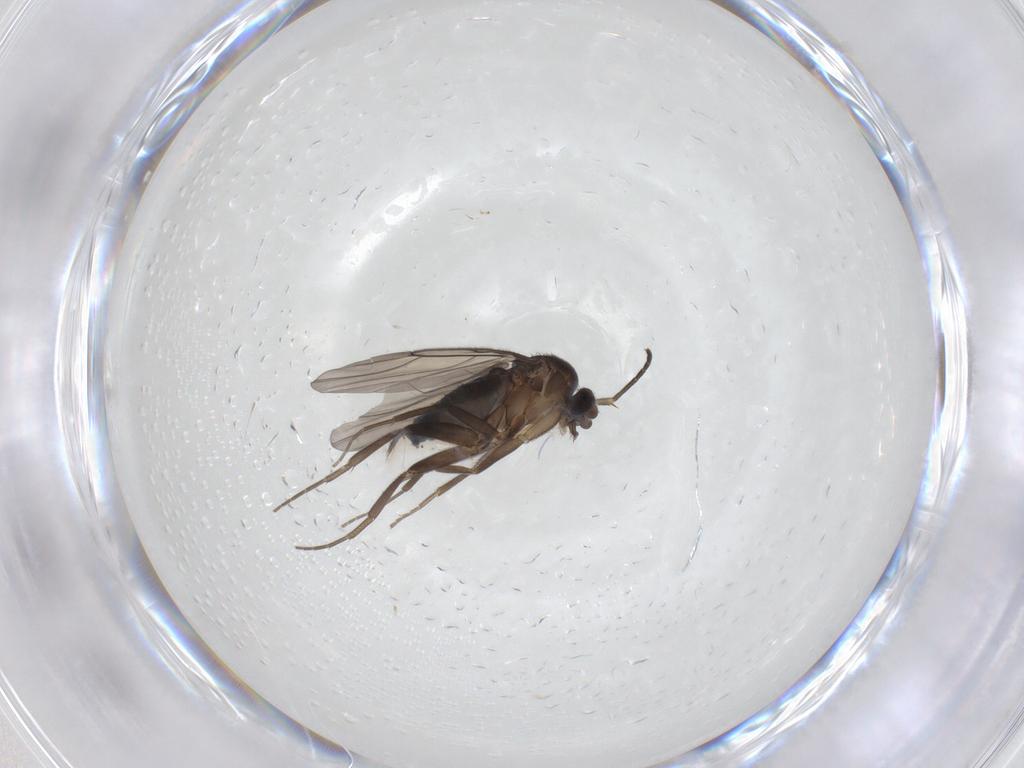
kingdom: Animalia
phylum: Arthropoda
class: Insecta
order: Diptera
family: Phoridae
